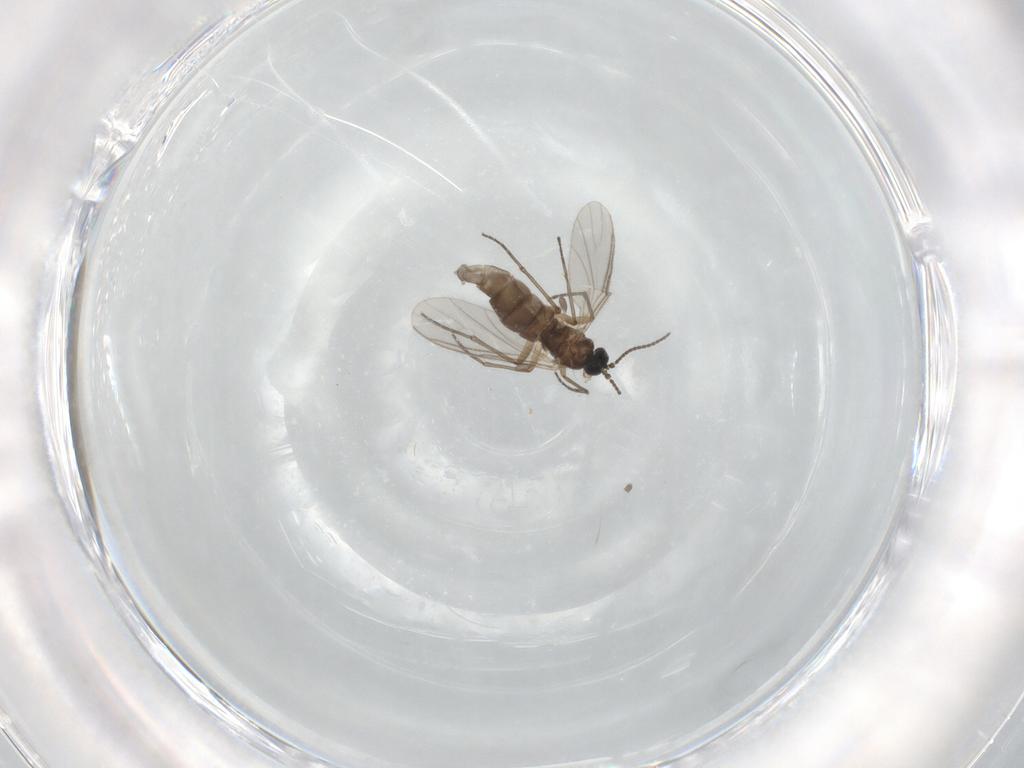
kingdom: Animalia
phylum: Arthropoda
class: Insecta
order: Diptera
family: Sciaridae
